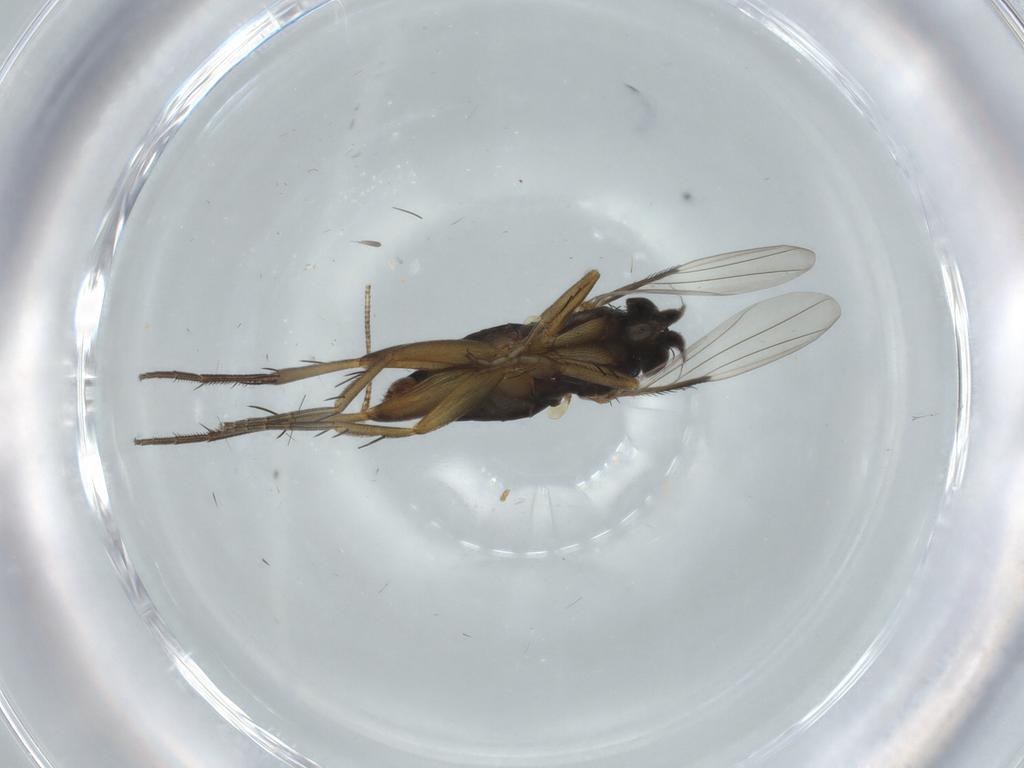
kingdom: Animalia
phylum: Arthropoda
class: Insecta
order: Diptera
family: Phoridae
